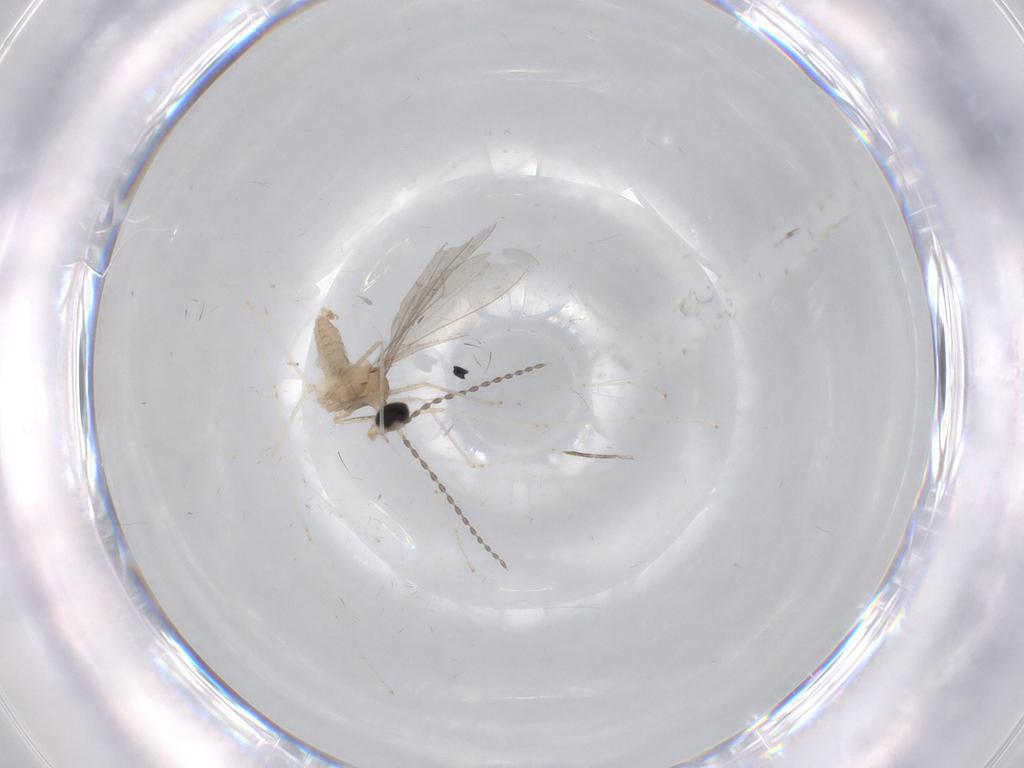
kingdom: Animalia
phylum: Arthropoda
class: Insecta
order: Diptera
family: Cecidomyiidae
